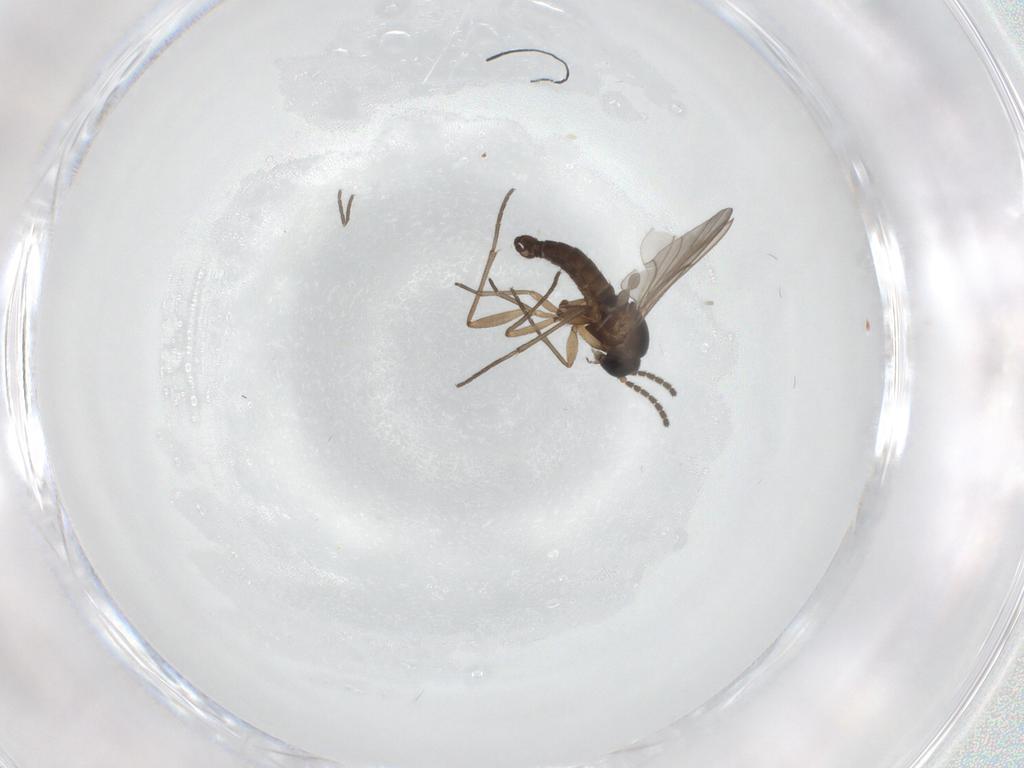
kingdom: Animalia
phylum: Arthropoda
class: Insecta
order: Diptera
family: Sciaridae
